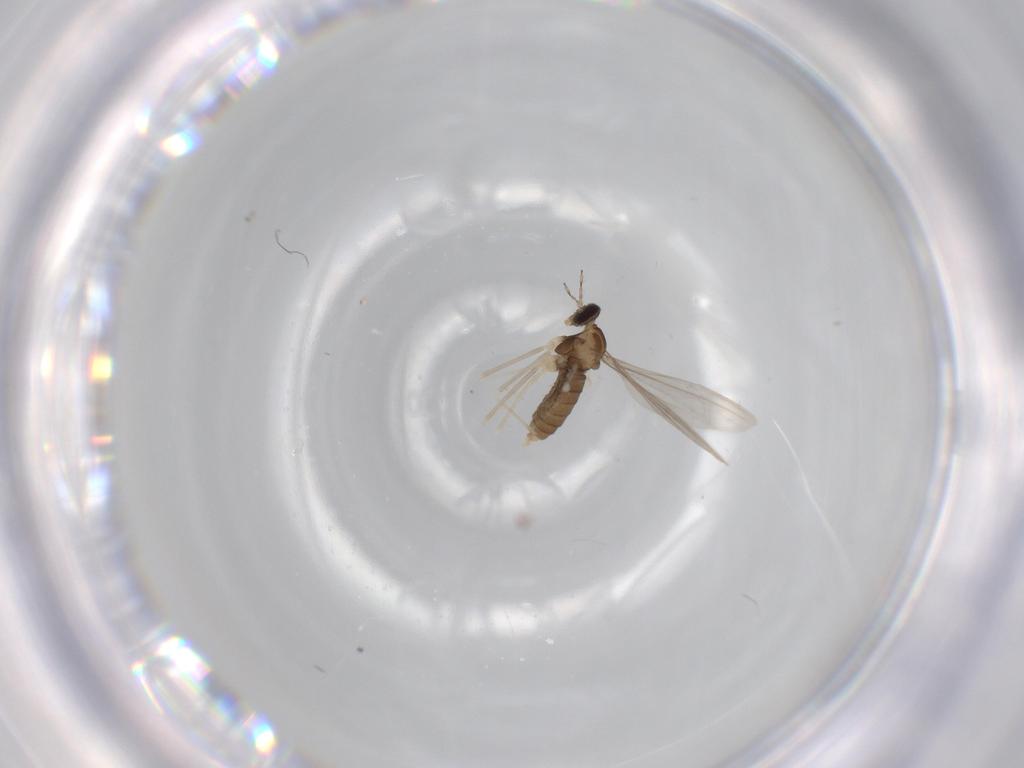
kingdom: Animalia
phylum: Arthropoda
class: Insecta
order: Diptera
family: Cecidomyiidae
